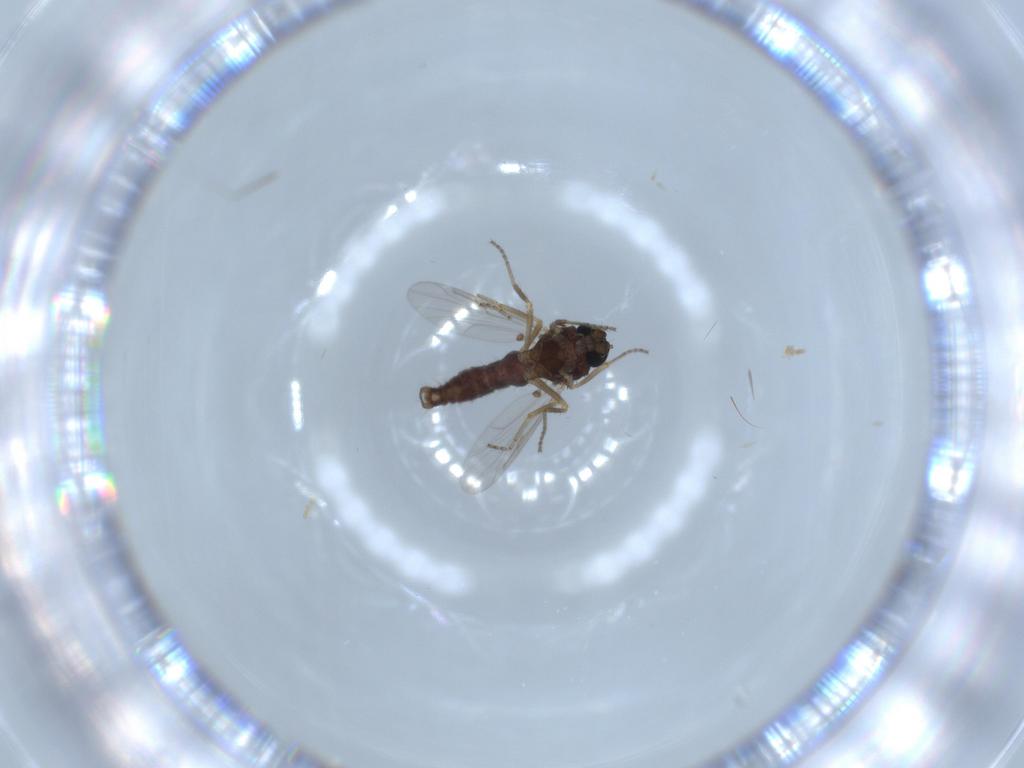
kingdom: Animalia
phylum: Arthropoda
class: Insecta
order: Diptera
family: Ceratopogonidae
